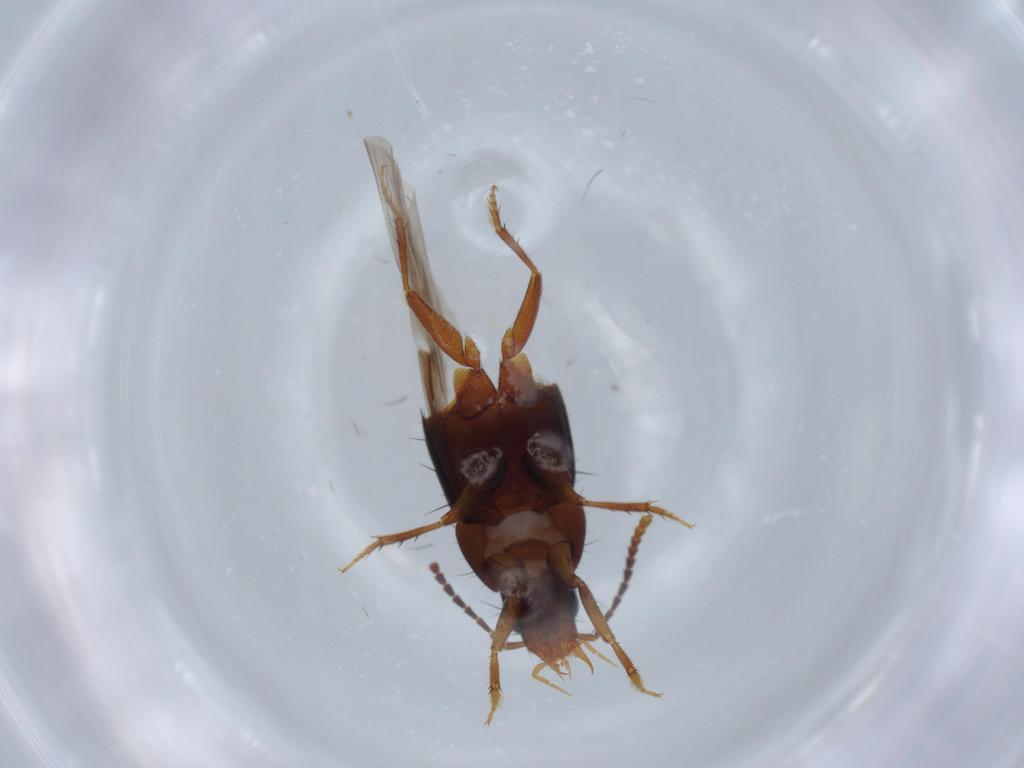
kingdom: Animalia
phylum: Arthropoda
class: Insecta
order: Coleoptera
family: Staphylinidae
